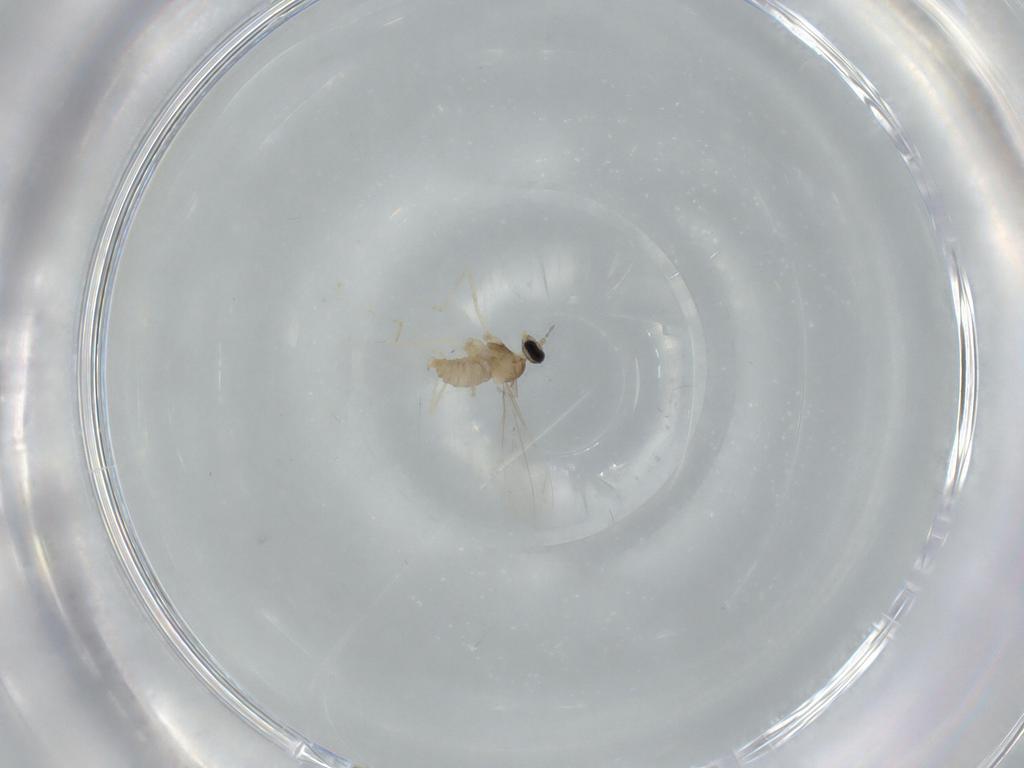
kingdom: Animalia
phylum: Arthropoda
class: Insecta
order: Diptera
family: Cecidomyiidae
